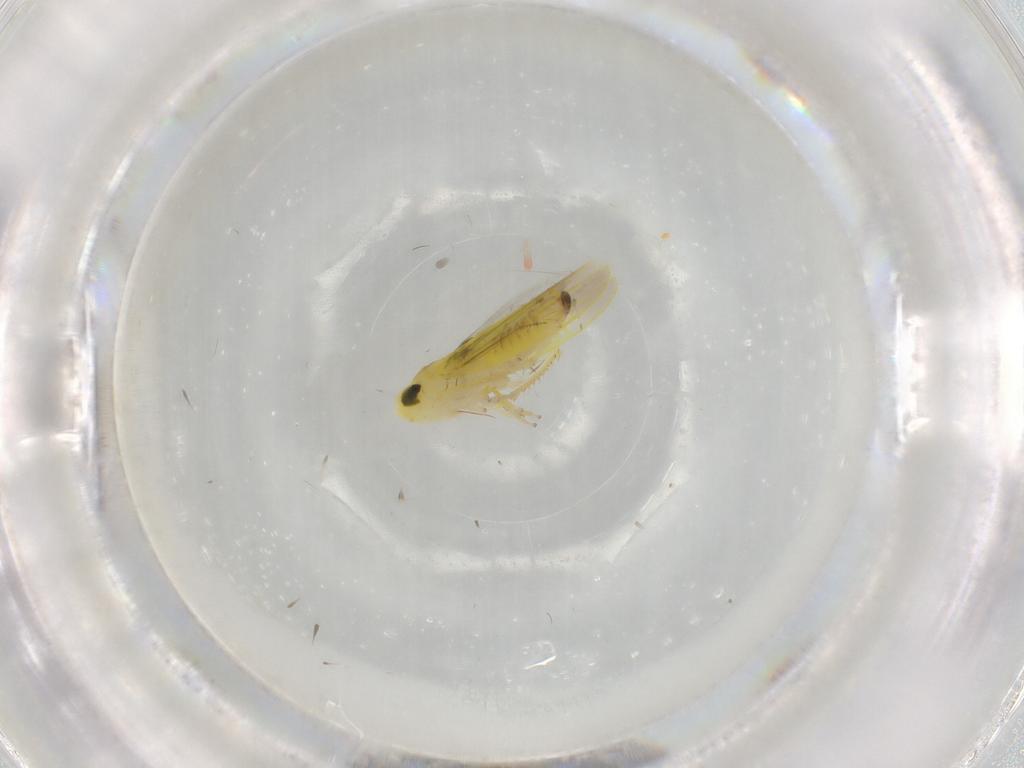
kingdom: Animalia
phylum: Arthropoda
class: Insecta
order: Hemiptera
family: Cicadellidae
